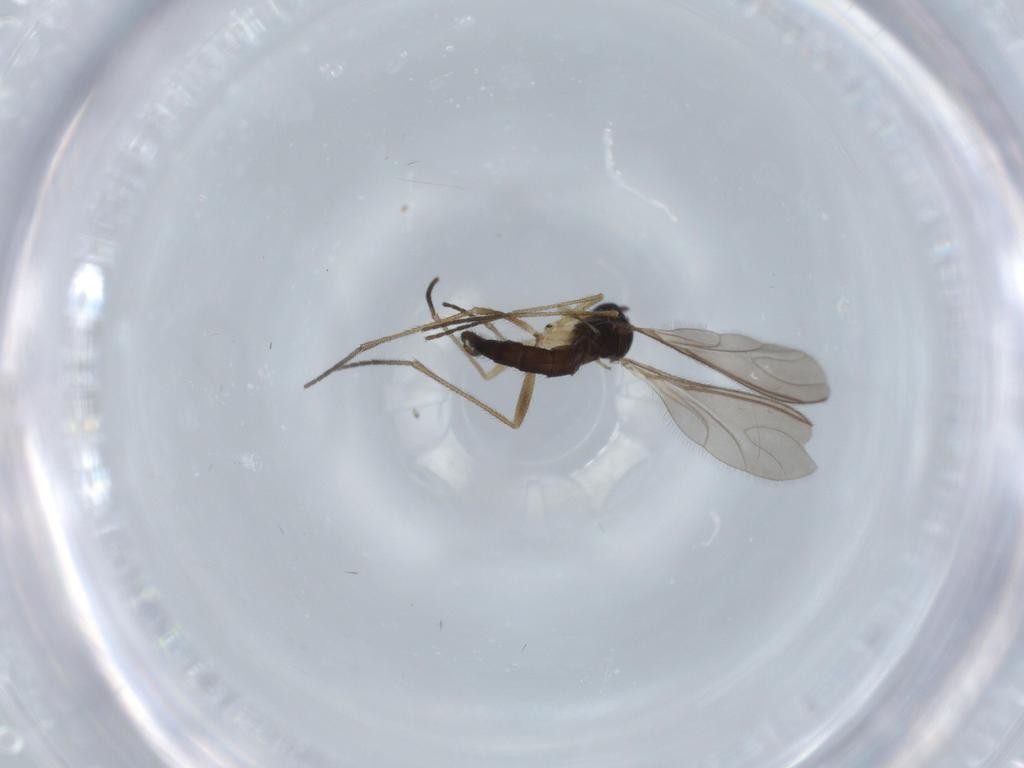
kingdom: Animalia
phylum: Arthropoda
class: Insecta
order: Diptera
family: Sciaridae
